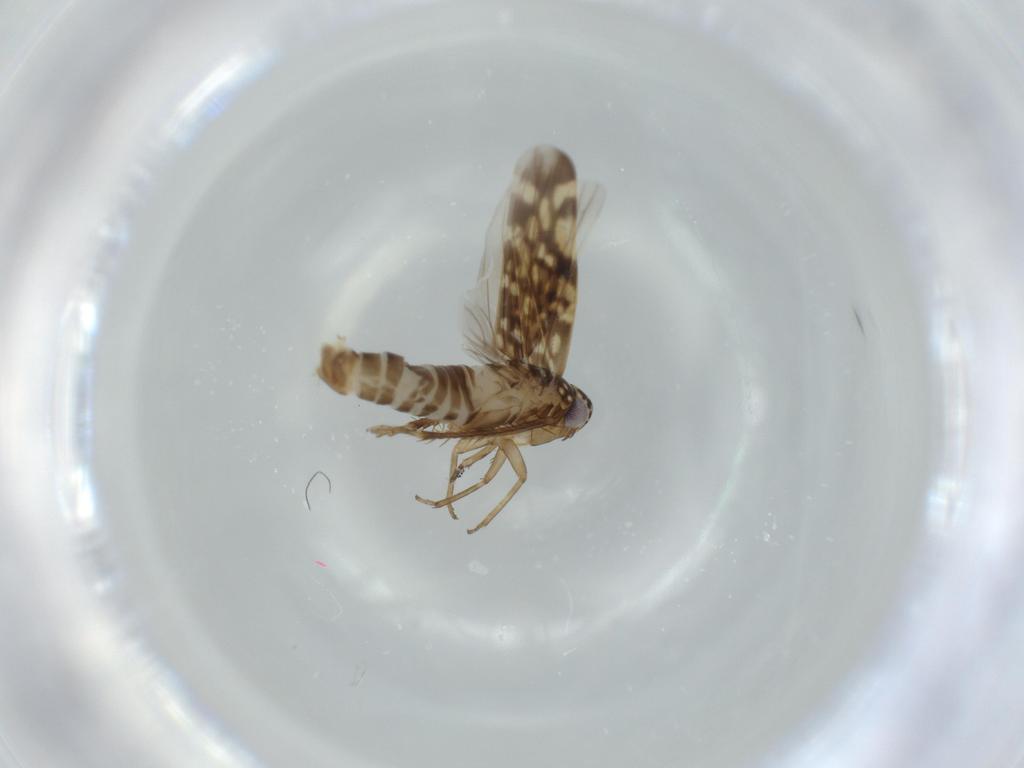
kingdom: Animalia
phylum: Arthropoda
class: Insecta
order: Hemiptera
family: Cicadellidae
